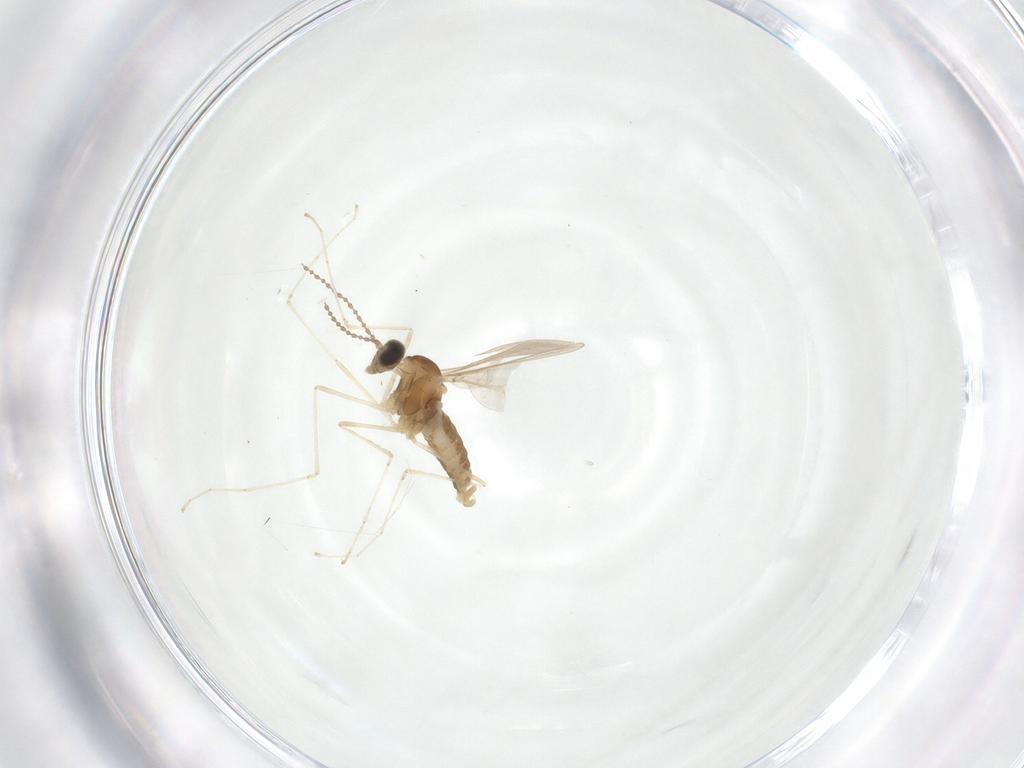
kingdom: Animalia
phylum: Arthropoda
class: Insecta
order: Diptera
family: Cecidomyiidae
